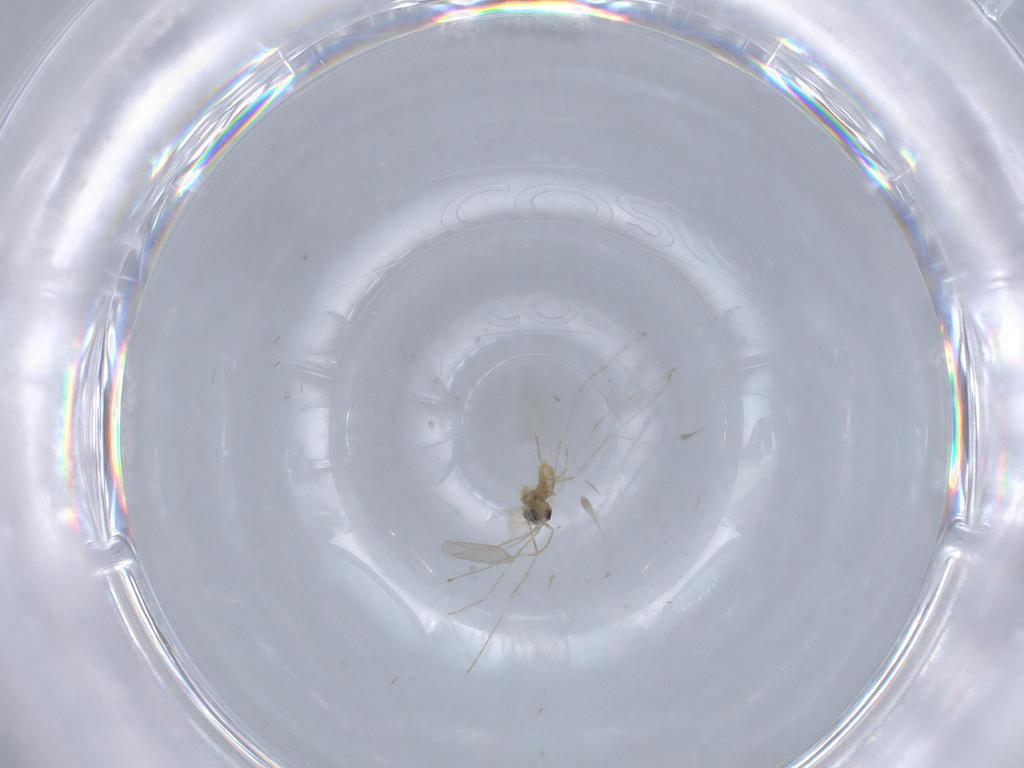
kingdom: Animalia
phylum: Arthropoda
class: Insecta
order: Diptera
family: Cecidomyiidae
